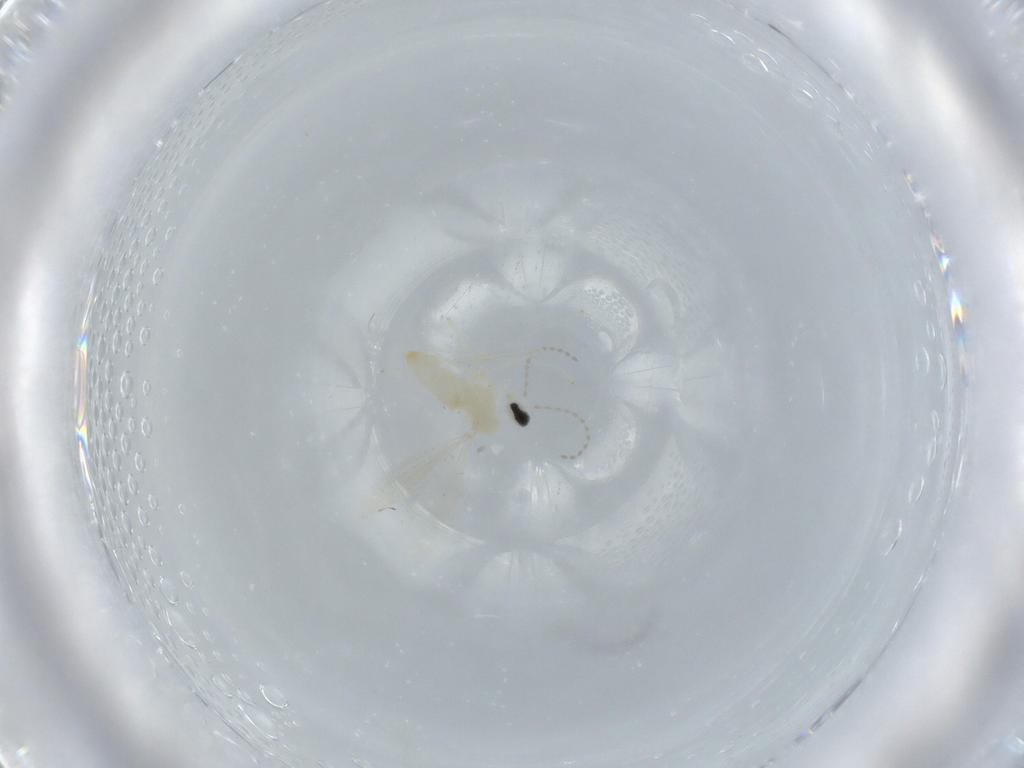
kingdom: Animalia
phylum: Arthropoda
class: Insecta
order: Diptera
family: Cecidomyiidae
